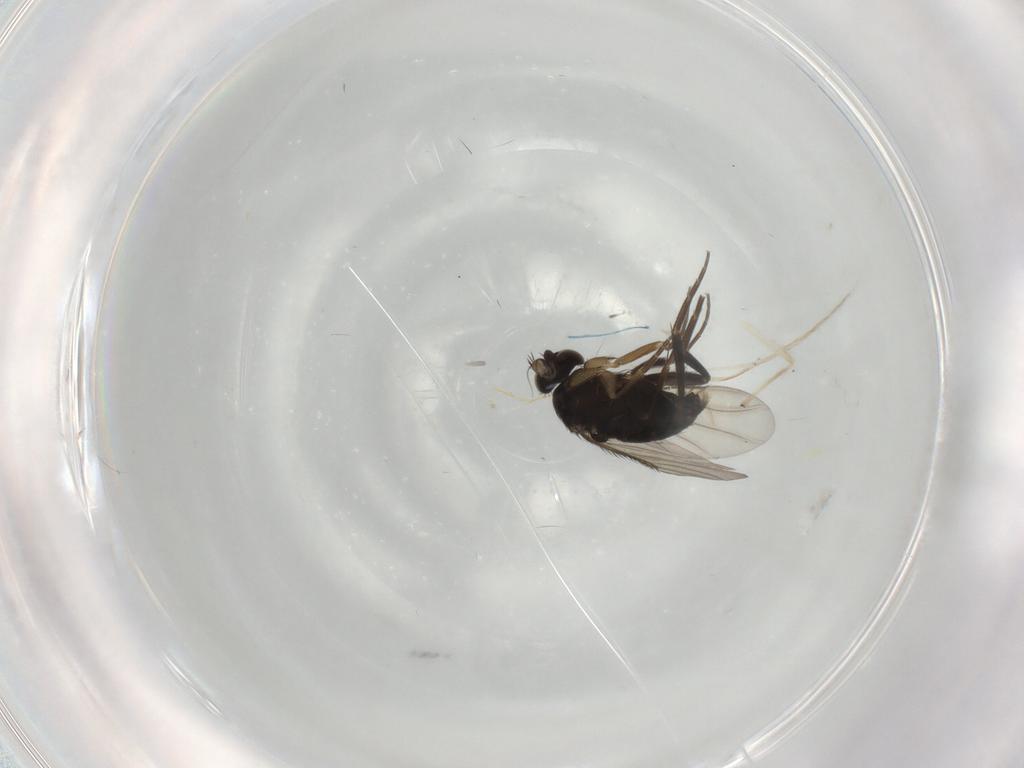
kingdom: Animalia
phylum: Arthropoda
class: Insecta
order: Diptera
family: Phoridae
